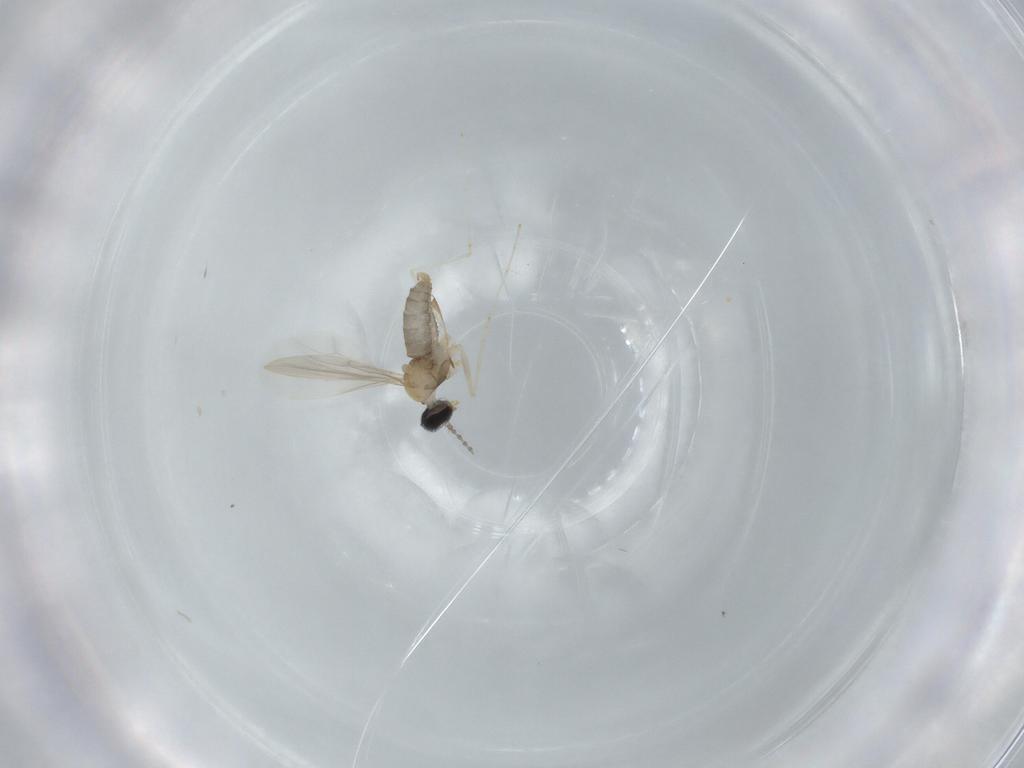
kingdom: Animalia
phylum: Arthropoda
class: Insecta
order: Diptera
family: Cecidomyiidae
